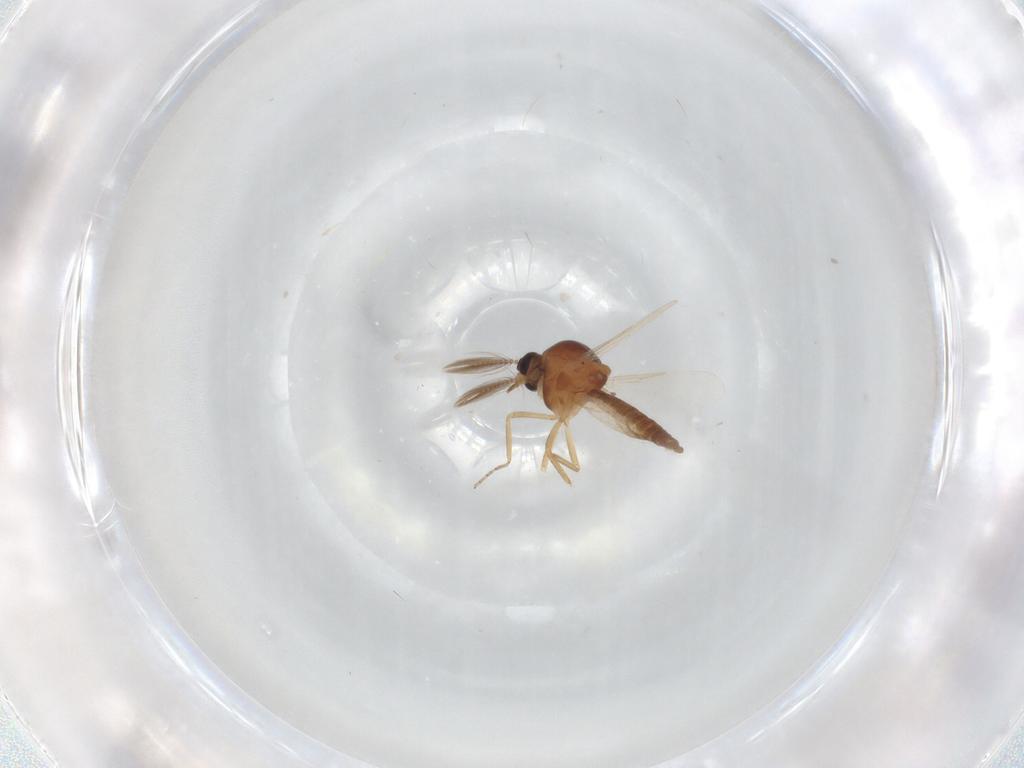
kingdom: Animalia
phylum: Arthropoda
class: Insecta
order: Diptera
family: Ceratopogonidae
